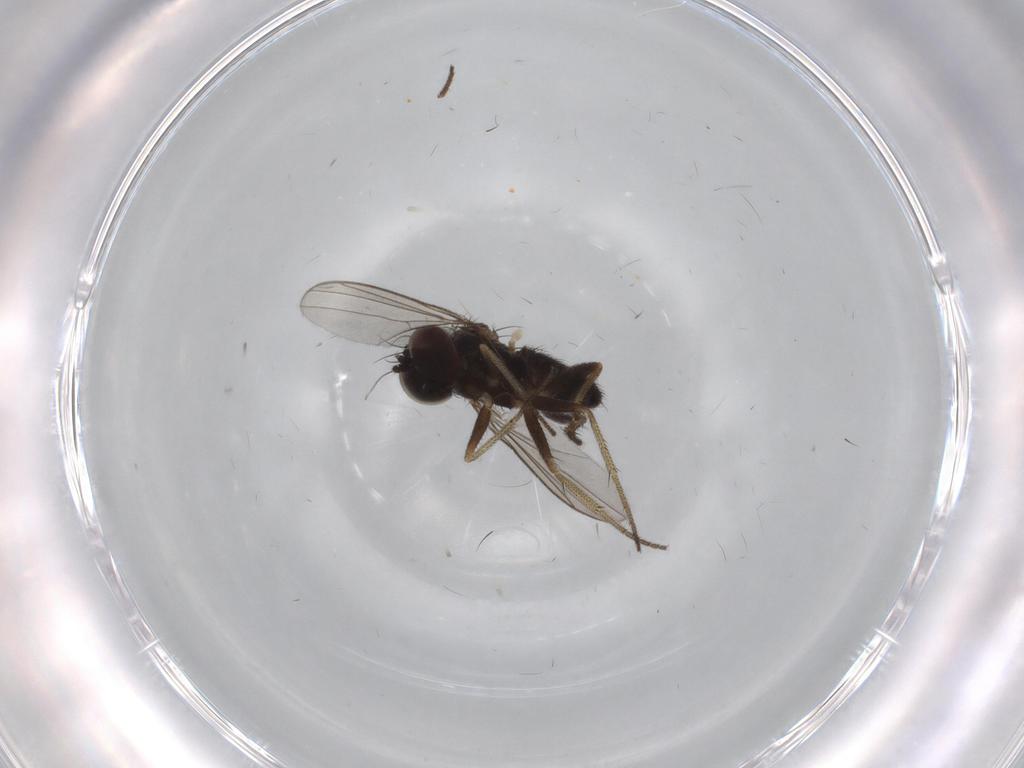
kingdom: Animalia
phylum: Arthropoda
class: Insecta
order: Diptera
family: Dolichopodidae
